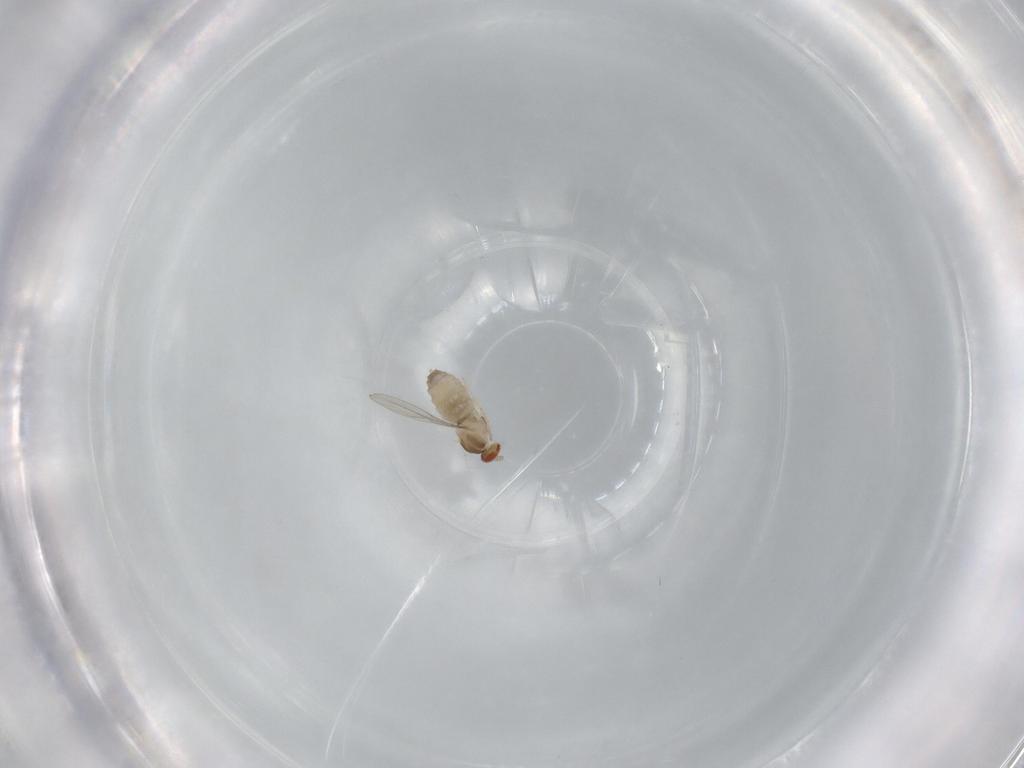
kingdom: Animalia
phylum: Arthropoda
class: Insecta
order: Diptera
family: Cecidomyiidae
